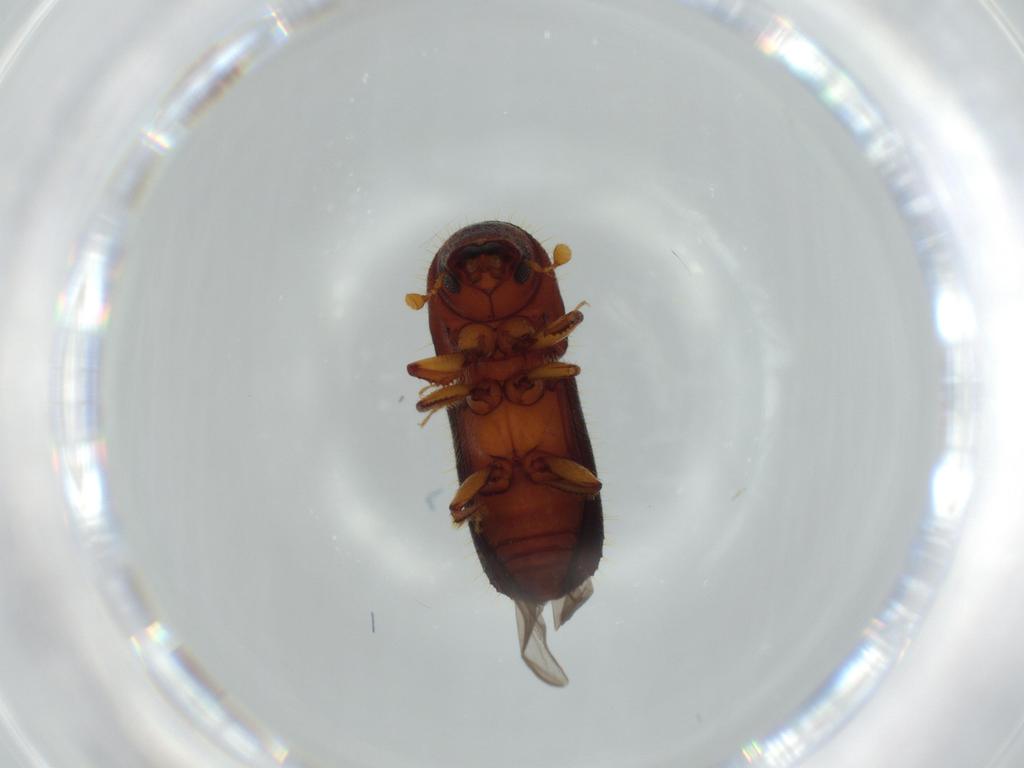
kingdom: Animalia
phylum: Arthropoda
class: Insecta
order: Coleoptera
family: Curculionidae
